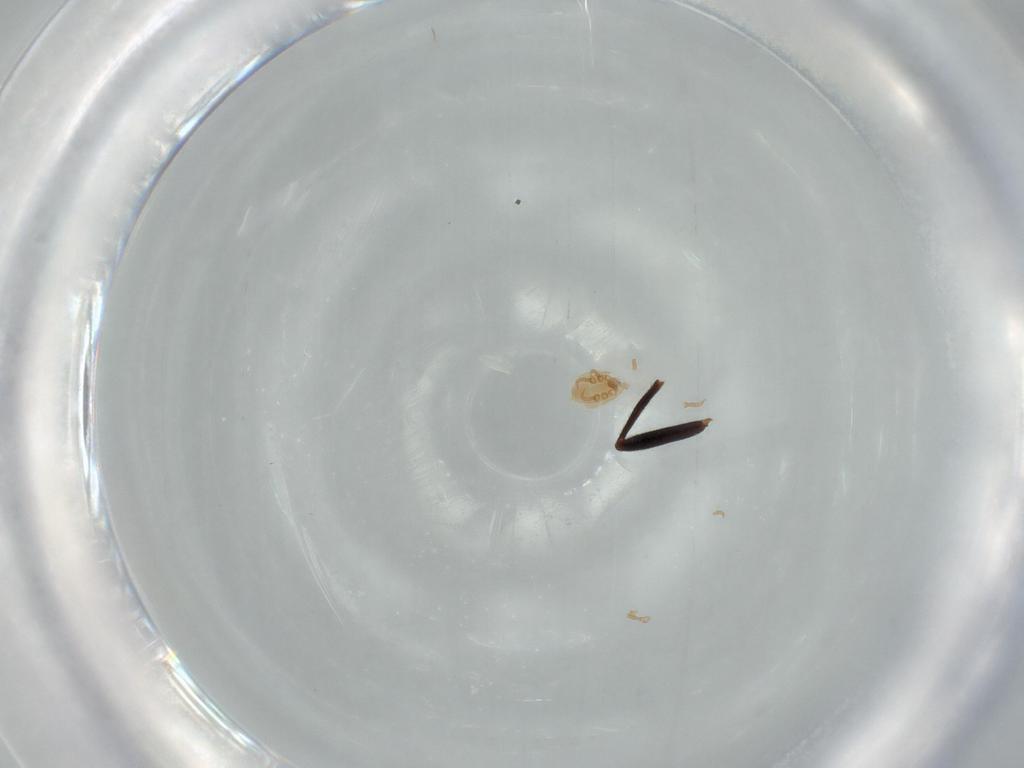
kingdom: Animalia
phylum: Arthropoda
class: Arachnida
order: Mesostigmata
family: Dinychidae
